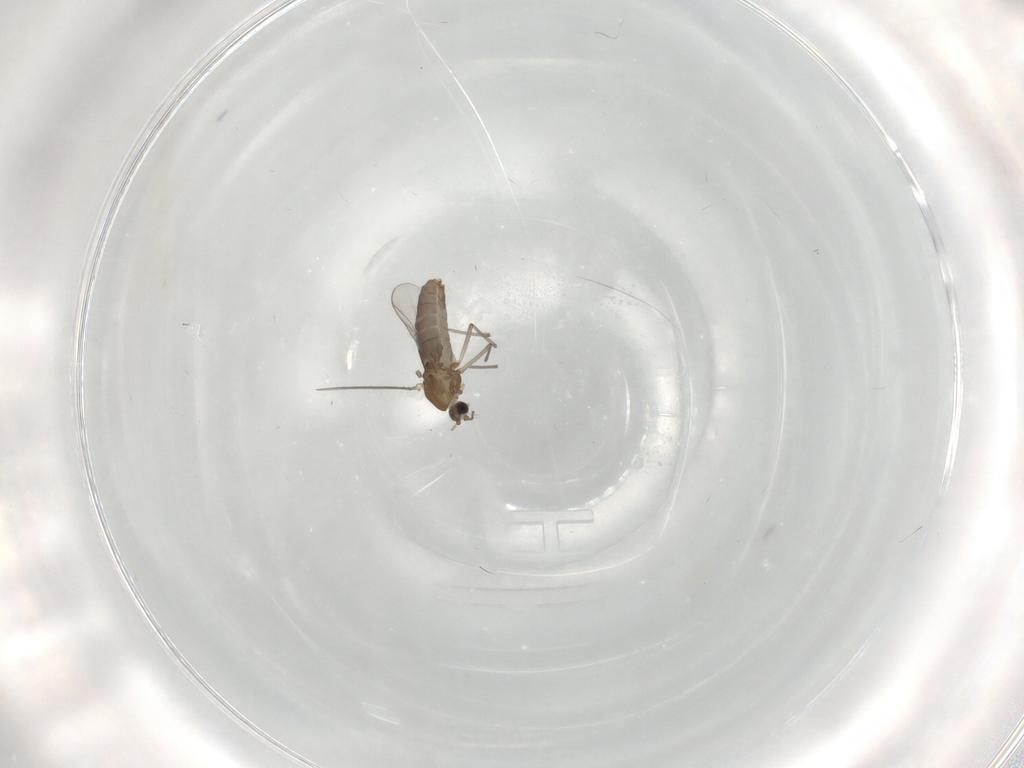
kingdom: Animalia
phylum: Arthropoda
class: Insecta
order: Diptera
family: Chironomidae
